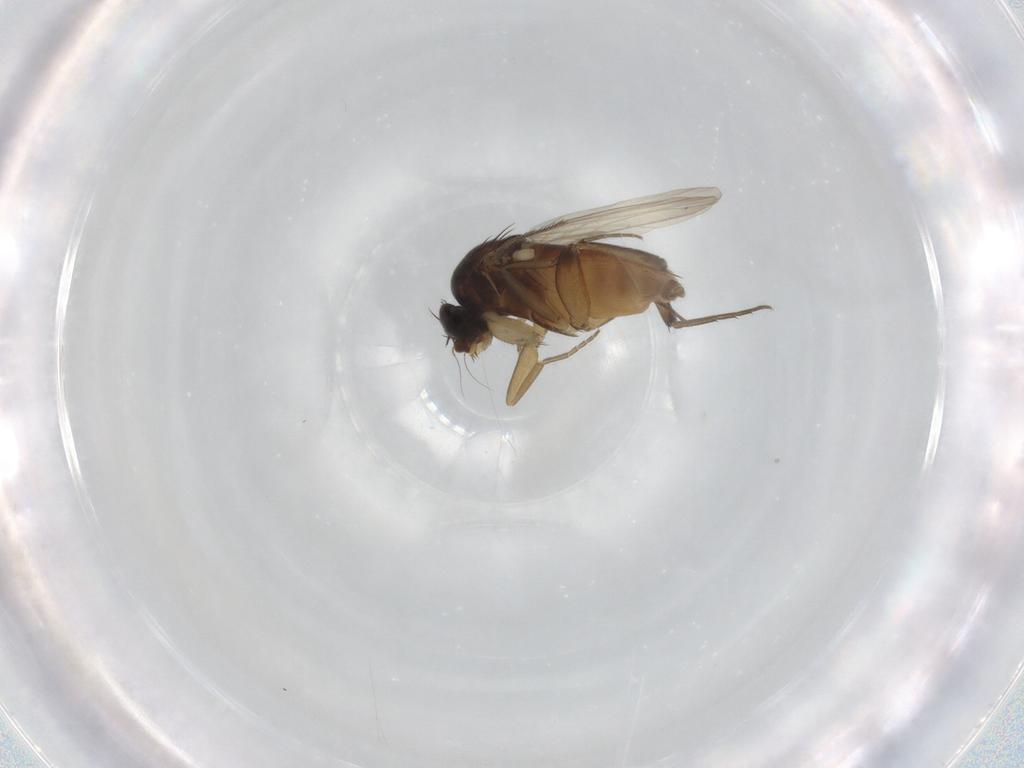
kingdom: Animalia
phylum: Arthropoda
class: Insecta
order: Diptera
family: Phoridae
